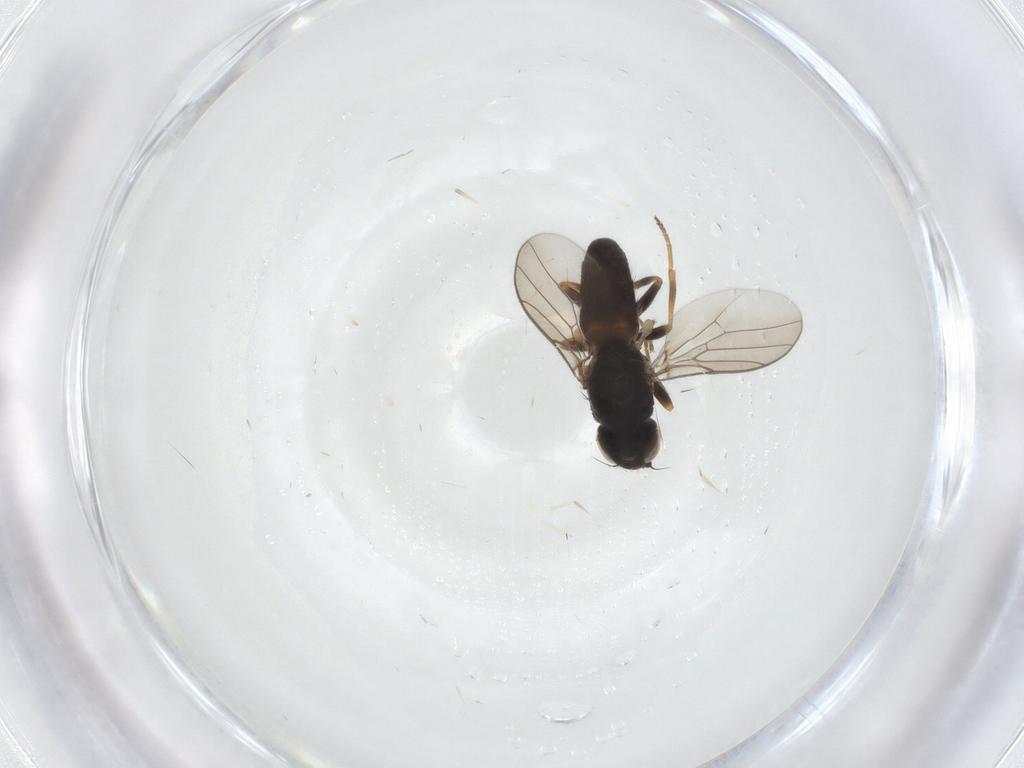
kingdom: Animalia
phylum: Arthropoda
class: Insecta
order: Diptera
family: Chloropidae
